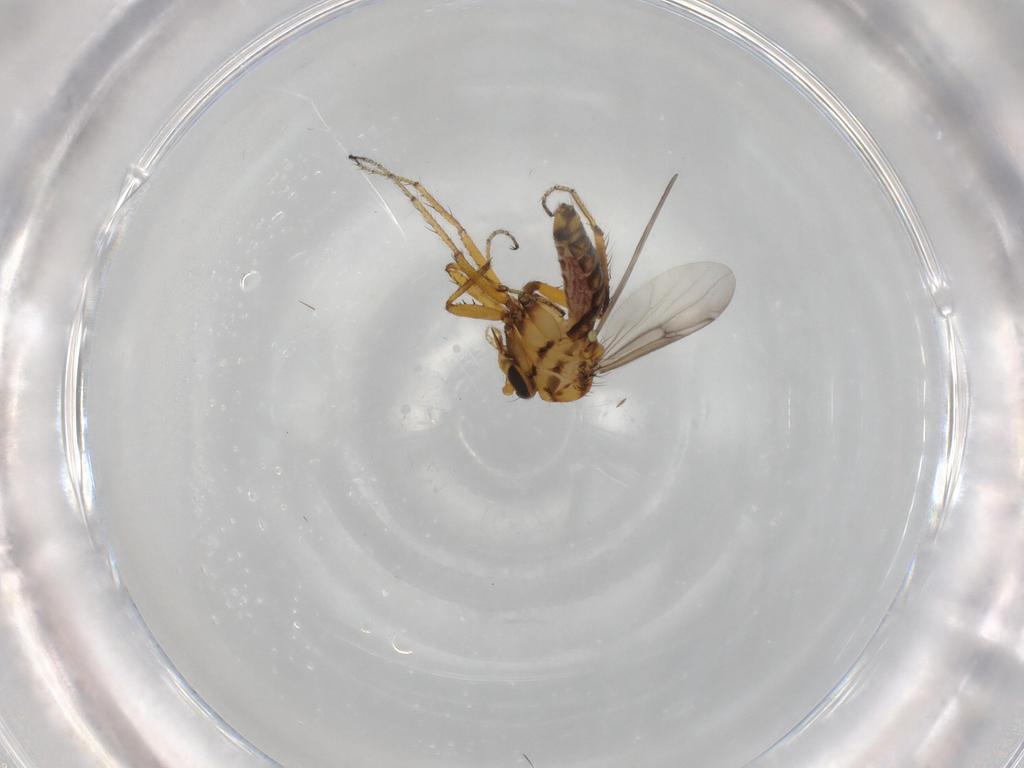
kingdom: Animalia
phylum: Arthropoda
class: Insecta
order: Diptera
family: Ceratopogonidae
